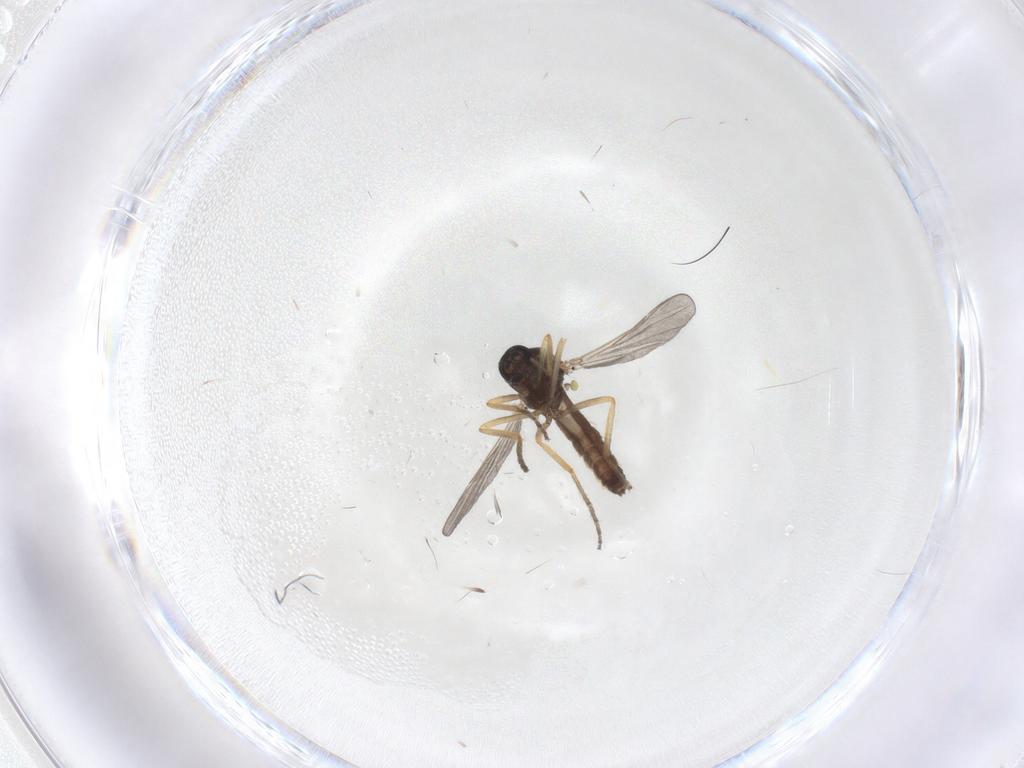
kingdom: Animalia
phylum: Arthropoda
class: Insecta
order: Diptera
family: Ceratopogonidae
